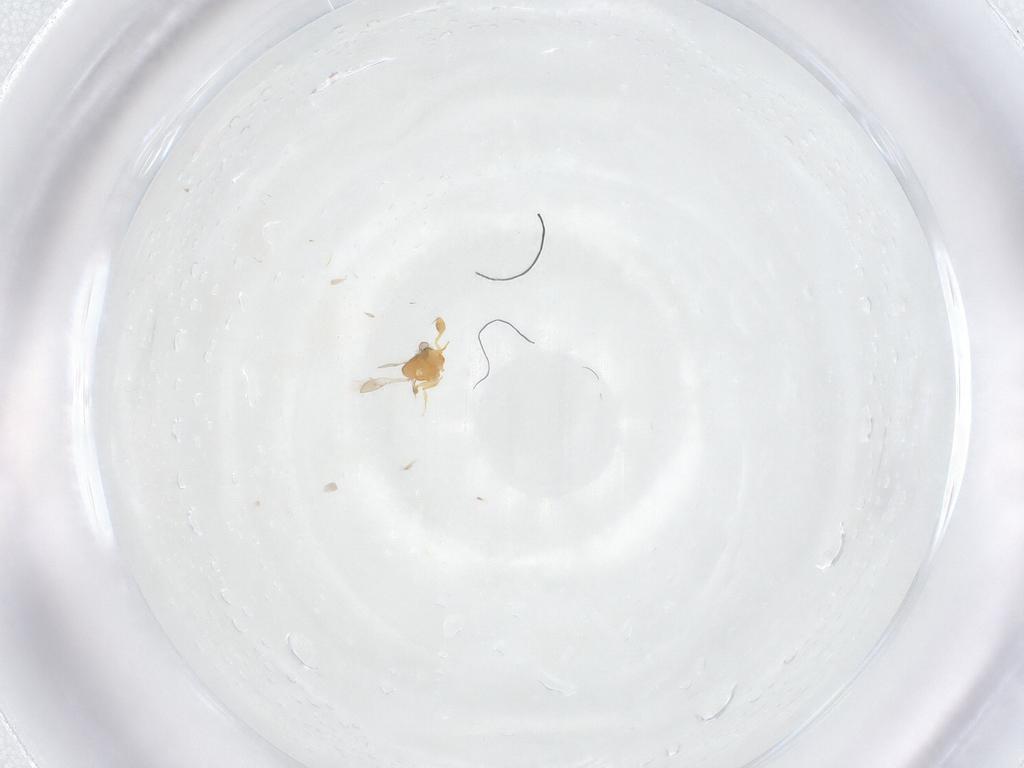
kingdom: Animalia
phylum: Arthropoda
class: Insecta
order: Hymenoptera
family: Scelionidae
